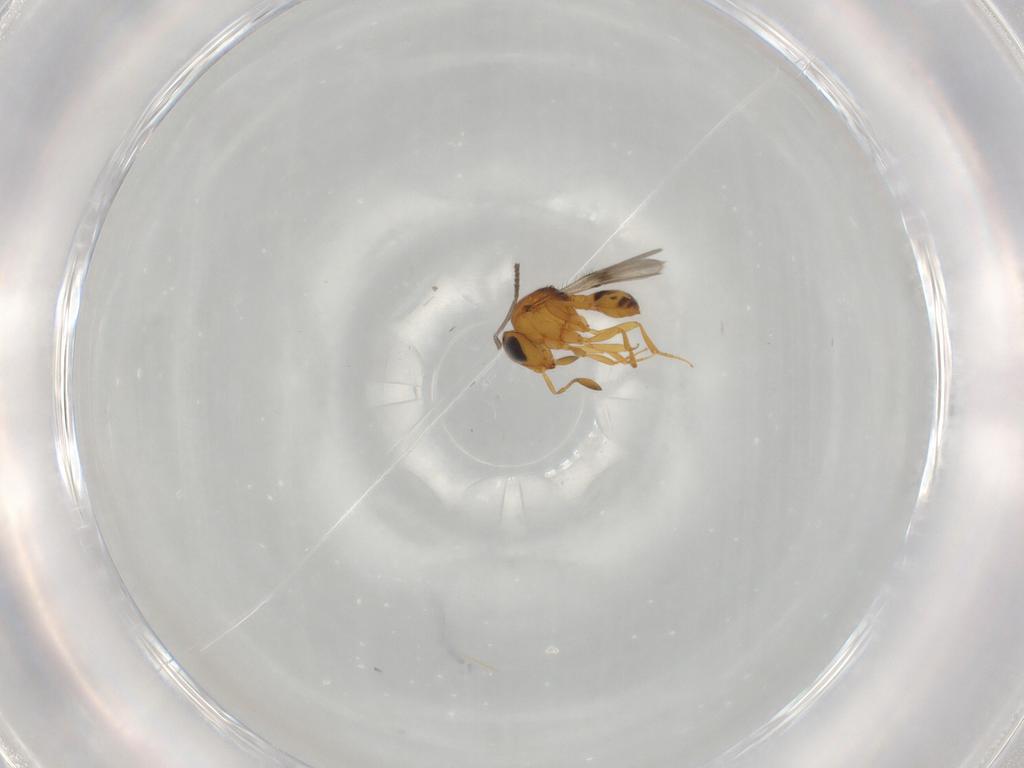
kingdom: Animalia
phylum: Arthropoda
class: Insecta
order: Hymenoptera
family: Scelionidae
